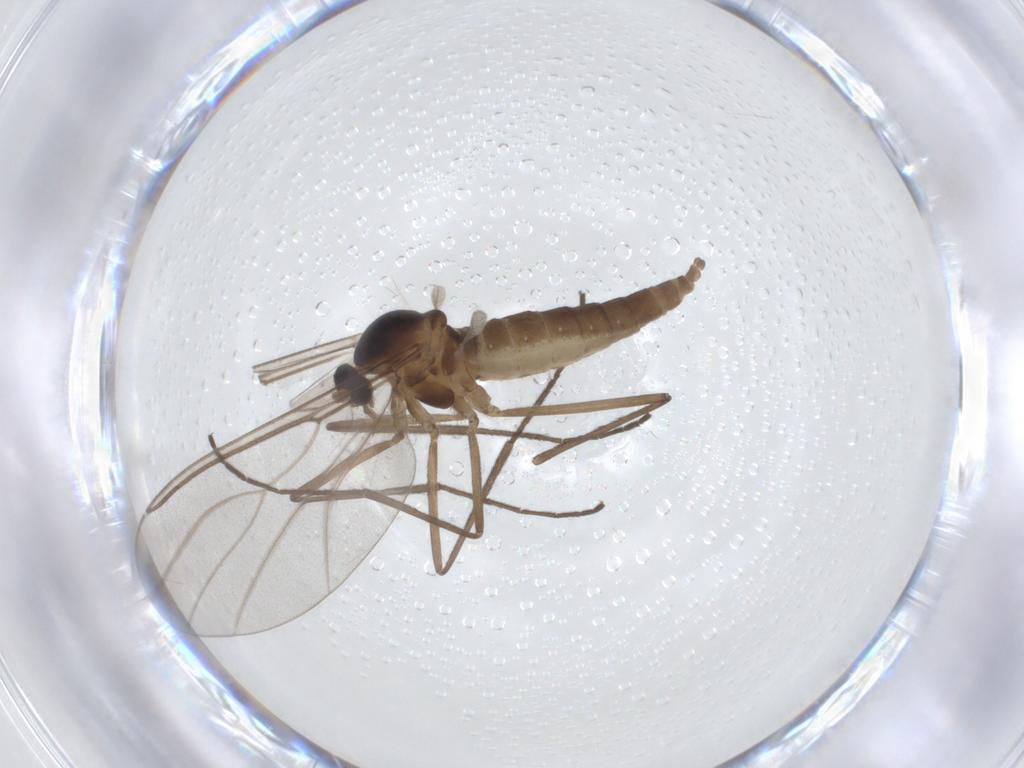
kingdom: Animalia
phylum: Arthropoda
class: Insecta
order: Diptera
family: Cecidomyiidae
